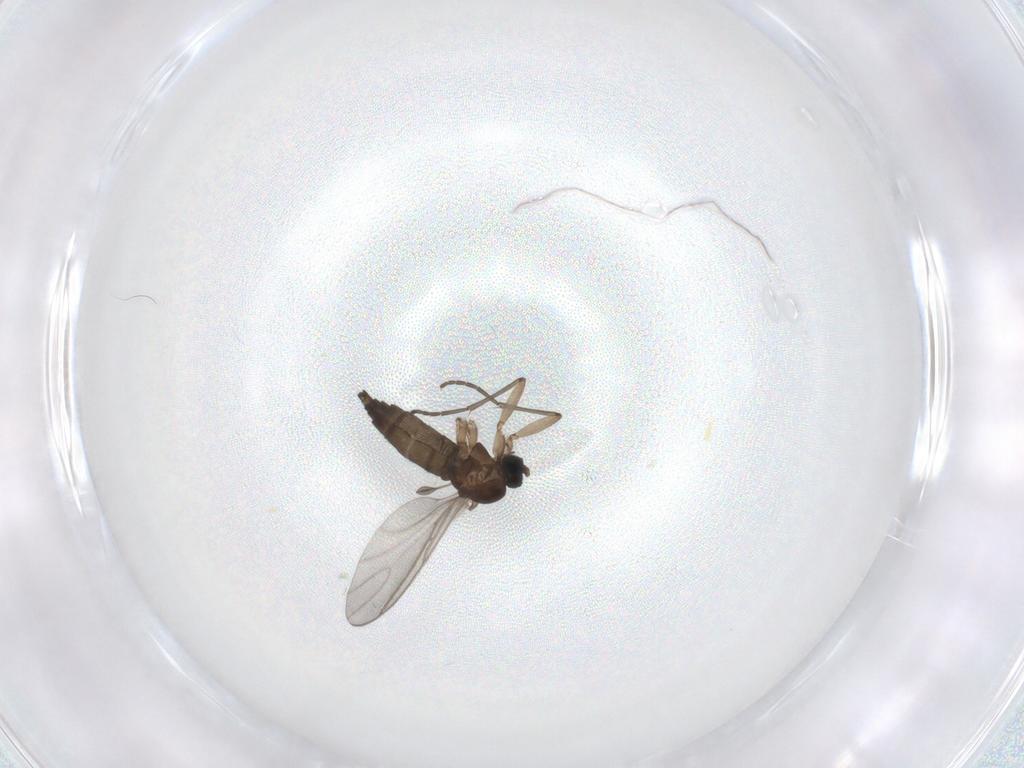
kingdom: Animalia
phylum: Arthropoda
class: Insecta
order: Diptera
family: Sciaridae
